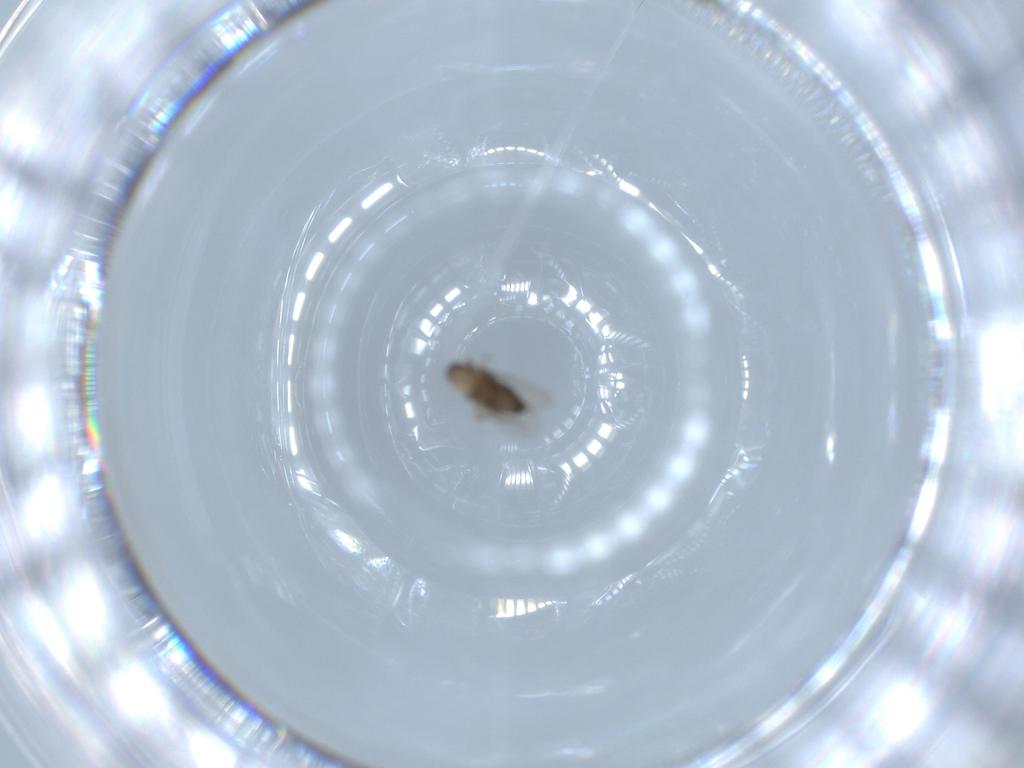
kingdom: Animalia
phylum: Arthropoda
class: Insecta
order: Diptera
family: Phoridae
